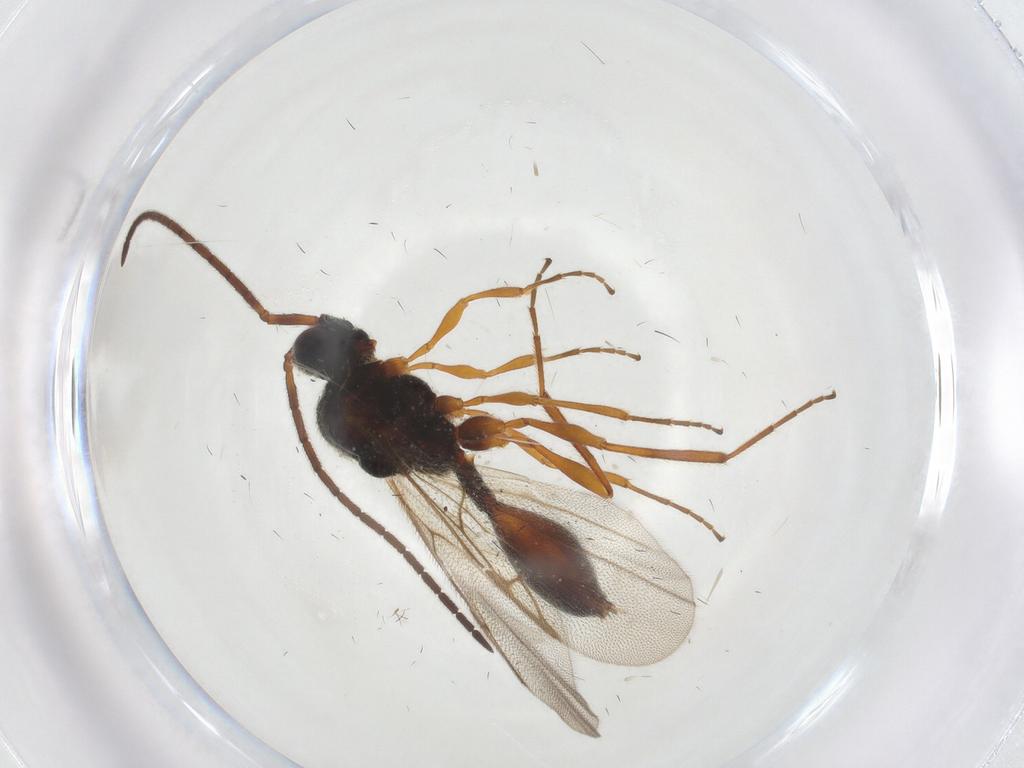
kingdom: Animalia
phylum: Arthropoda
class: Insecta
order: Hymenoptera
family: Diapriidae
